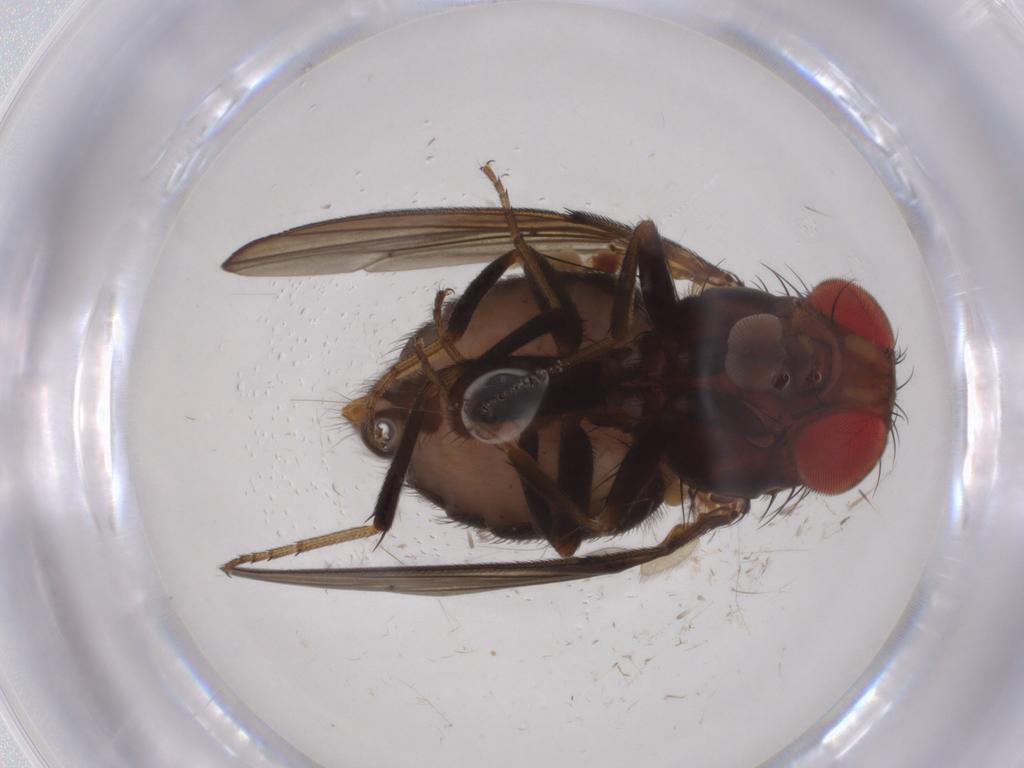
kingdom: Animalia
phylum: Arthropoda
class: Insecta
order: Diptera
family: Drosophilidae
